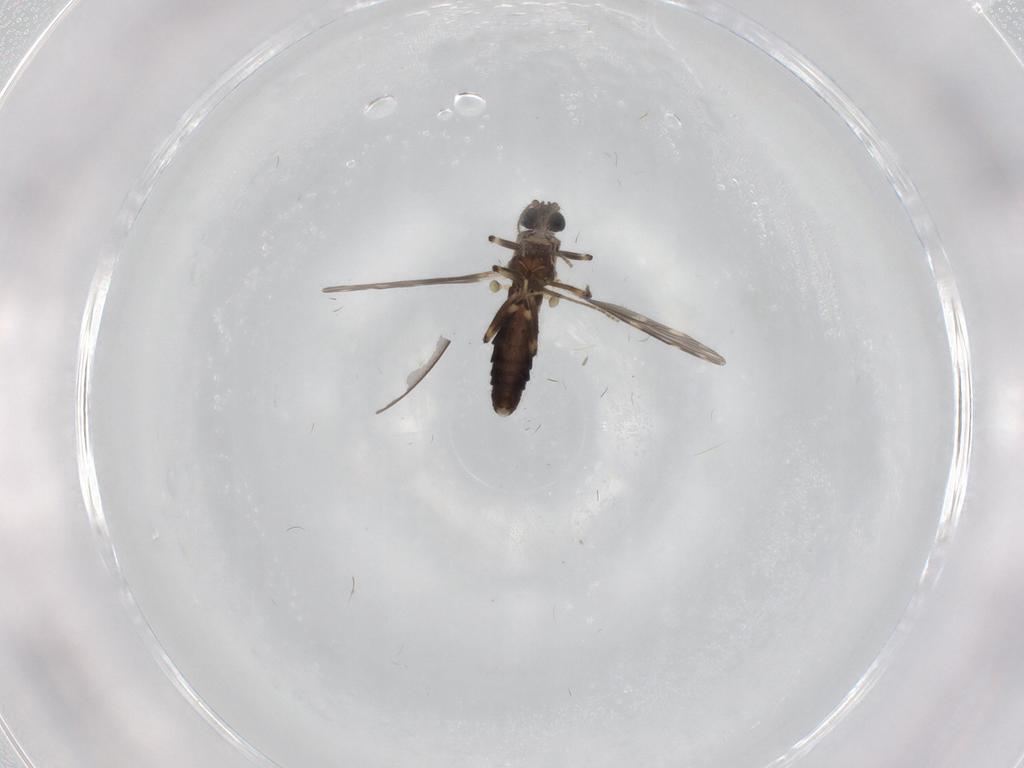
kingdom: Animalia
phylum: Arthropoda
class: Insecta
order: Diptera
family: Ceratopogonidae
